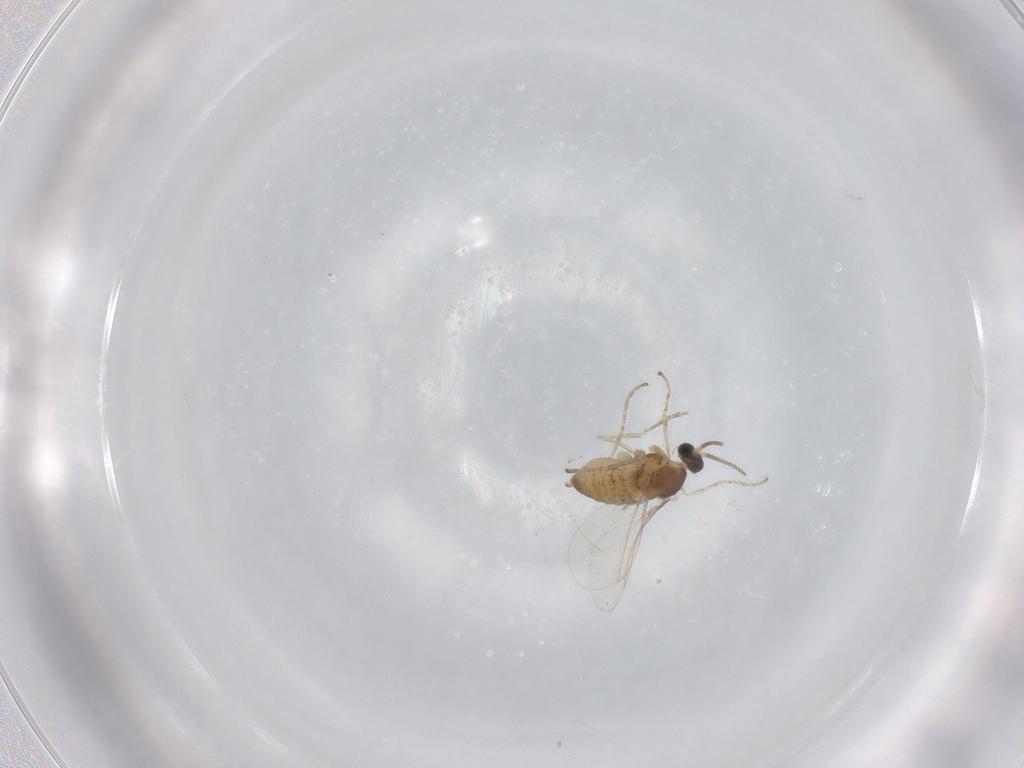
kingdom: Animalia
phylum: Arthropoda
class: Insecta
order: Diptera
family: Cecidomyiidae
